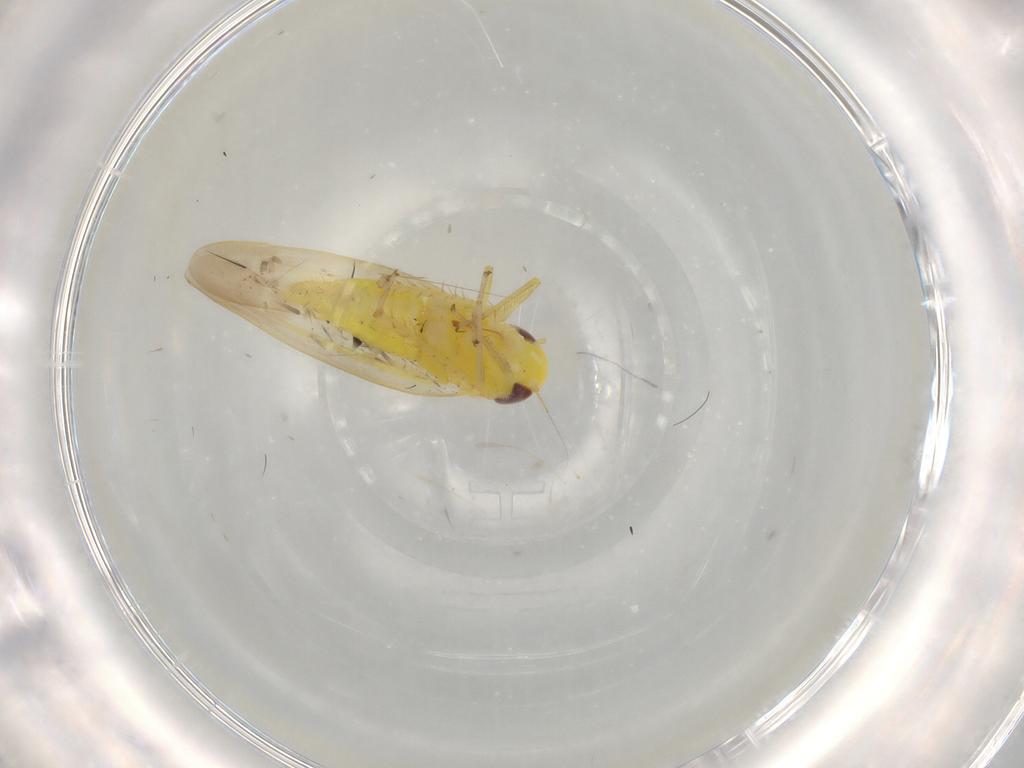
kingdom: Animalia
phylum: Arthropoda
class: Insecta
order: Hemiptera
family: Cicadellidae
